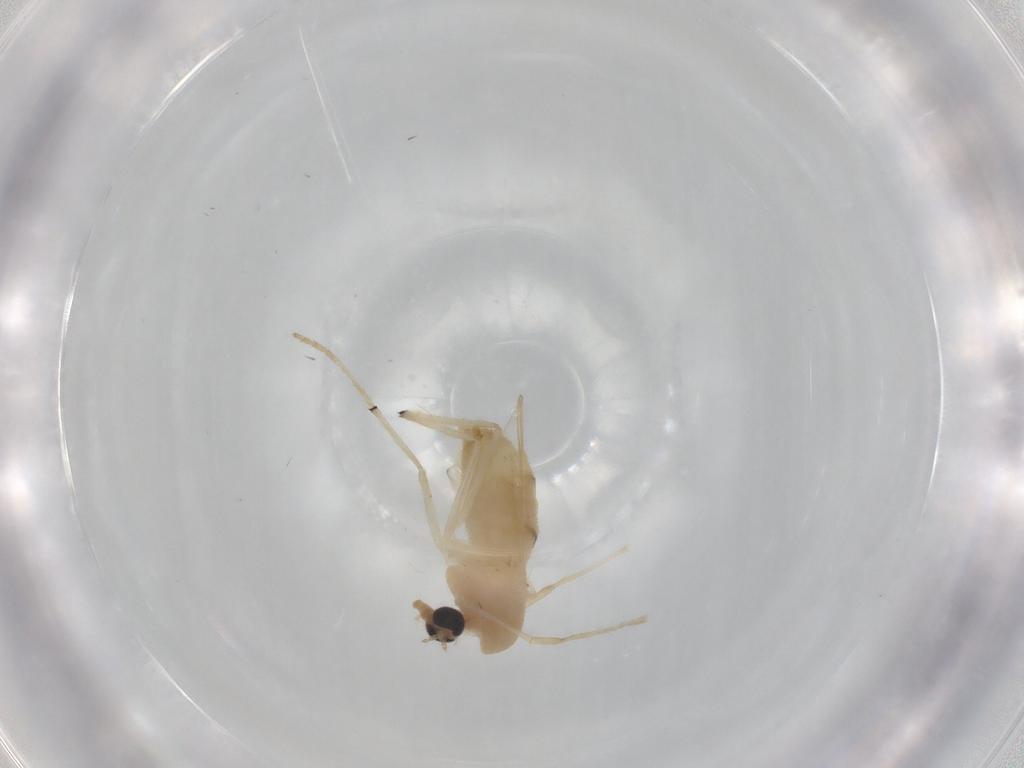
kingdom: Animalia
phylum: Arthropoda
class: Insecta
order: Diptera
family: Chironomidae
